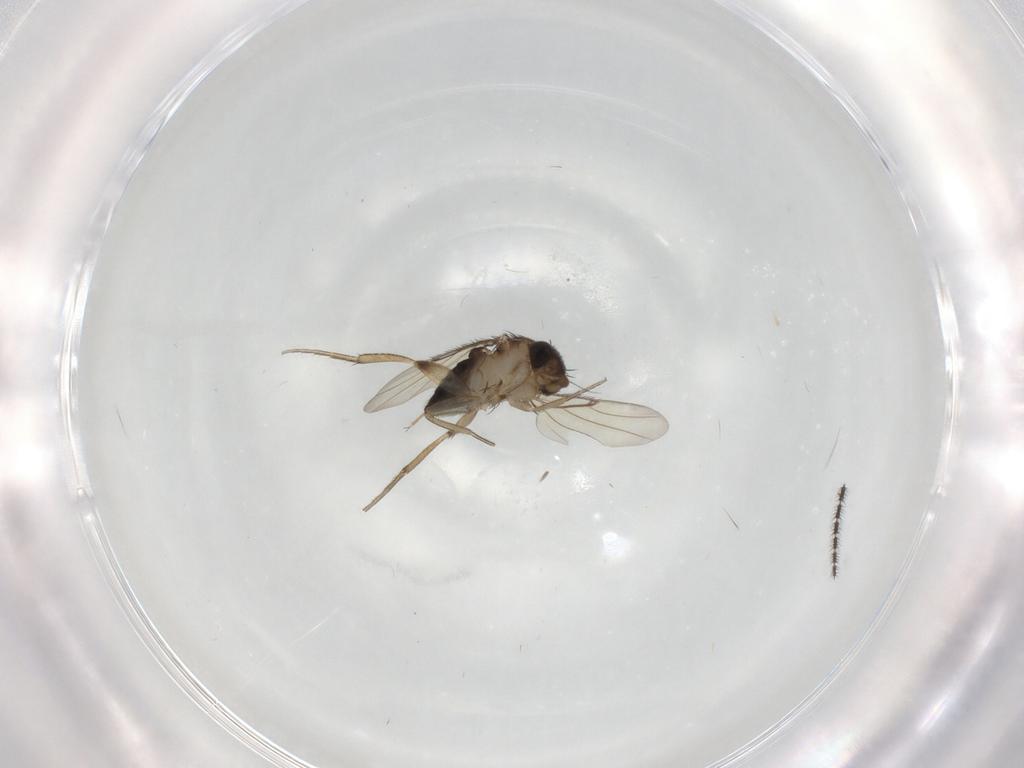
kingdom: Animalia
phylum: Arthropoda
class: Insecta
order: Diptera
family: Phoridae
